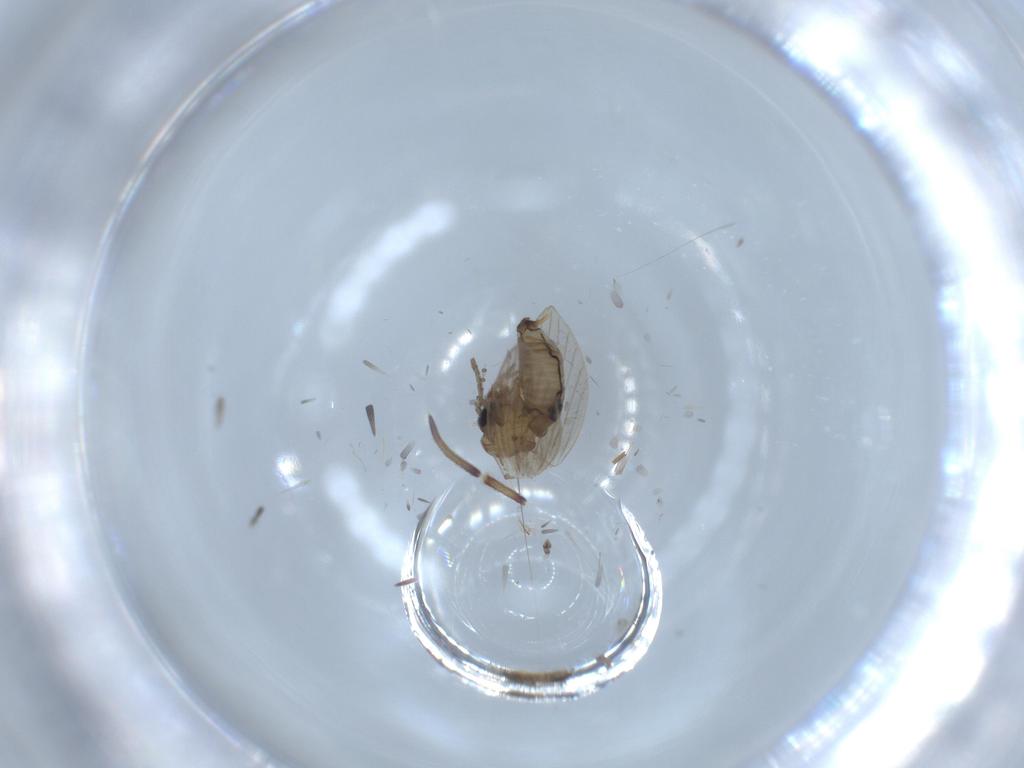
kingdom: Animalia
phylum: Arthropoda
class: Insecta
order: Diptera
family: Psychodidae
